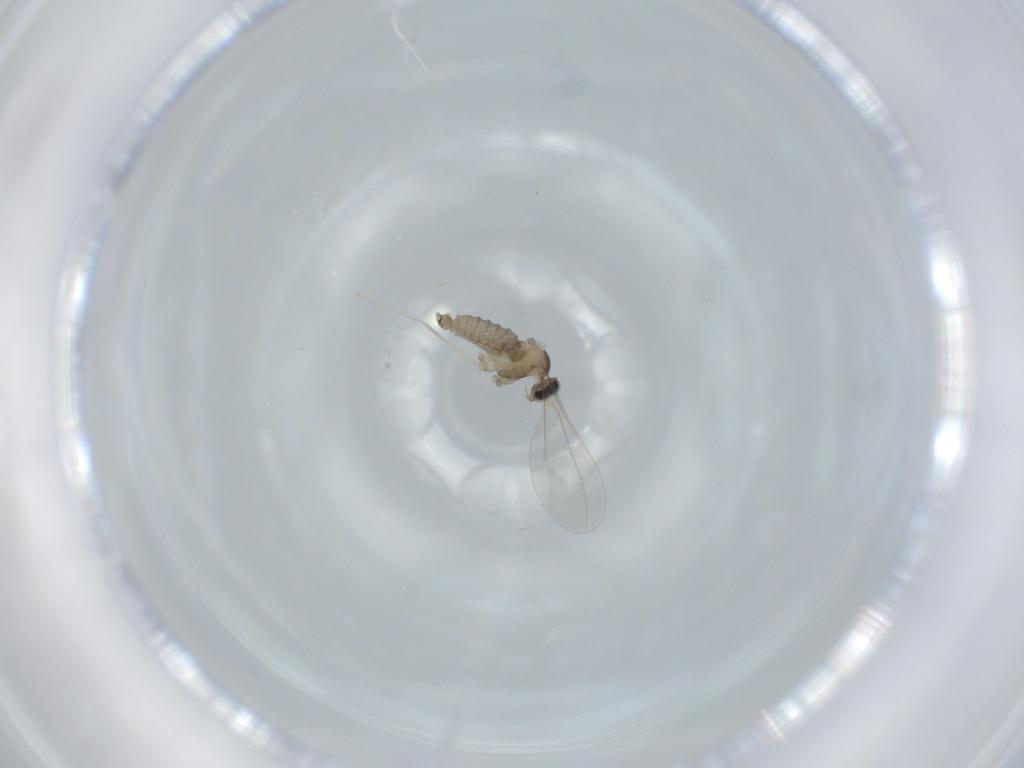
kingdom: Animalia
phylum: Arthropoda
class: Insecta
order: Diptera
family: Cecidomyiidae
